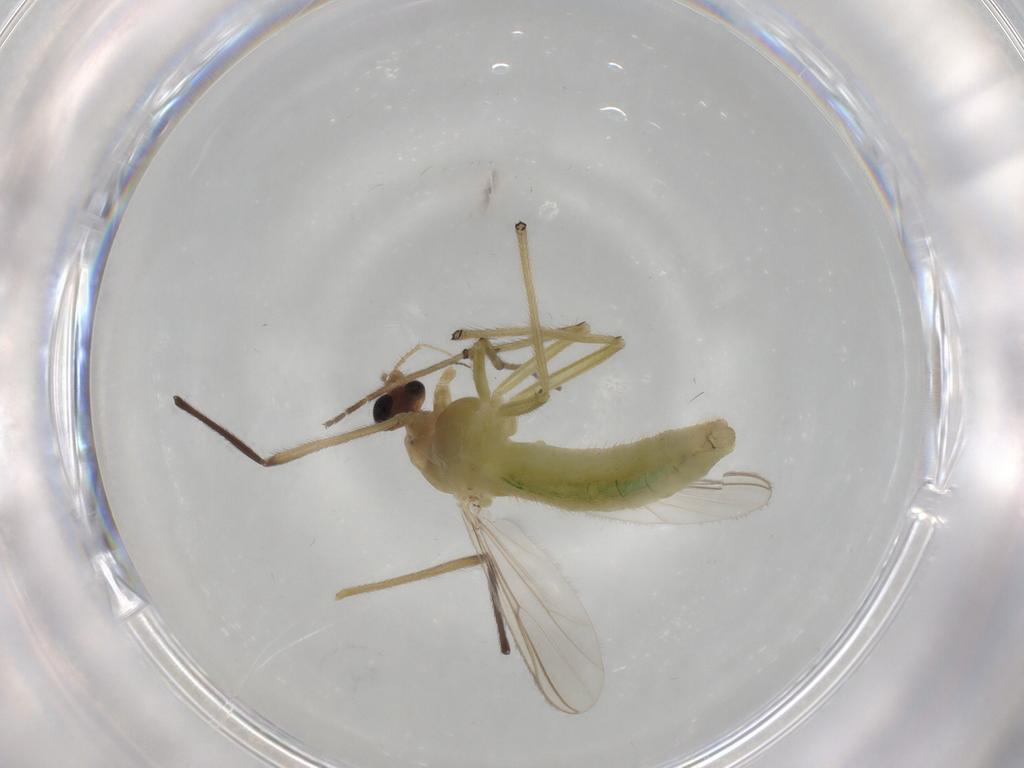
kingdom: Animalia
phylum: Arthropoda
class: Insecta
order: Diptera
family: Chironomidae
